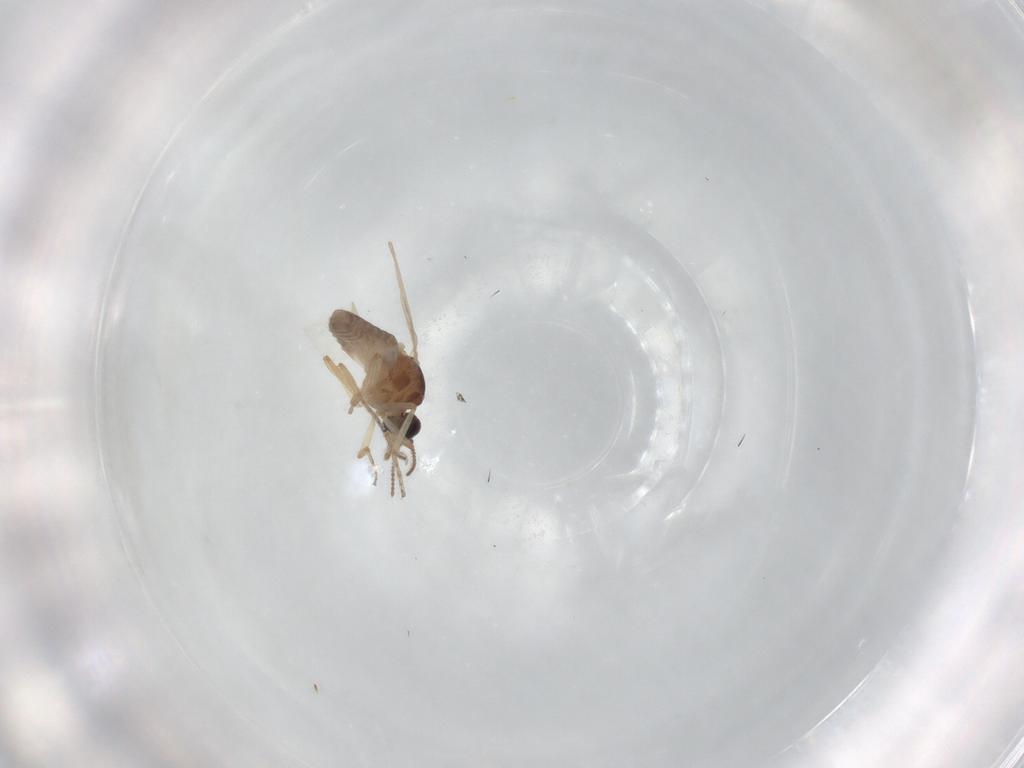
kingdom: Animalia
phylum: Arthropoda
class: Insecta
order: Diptera
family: Ceratopogonidae
